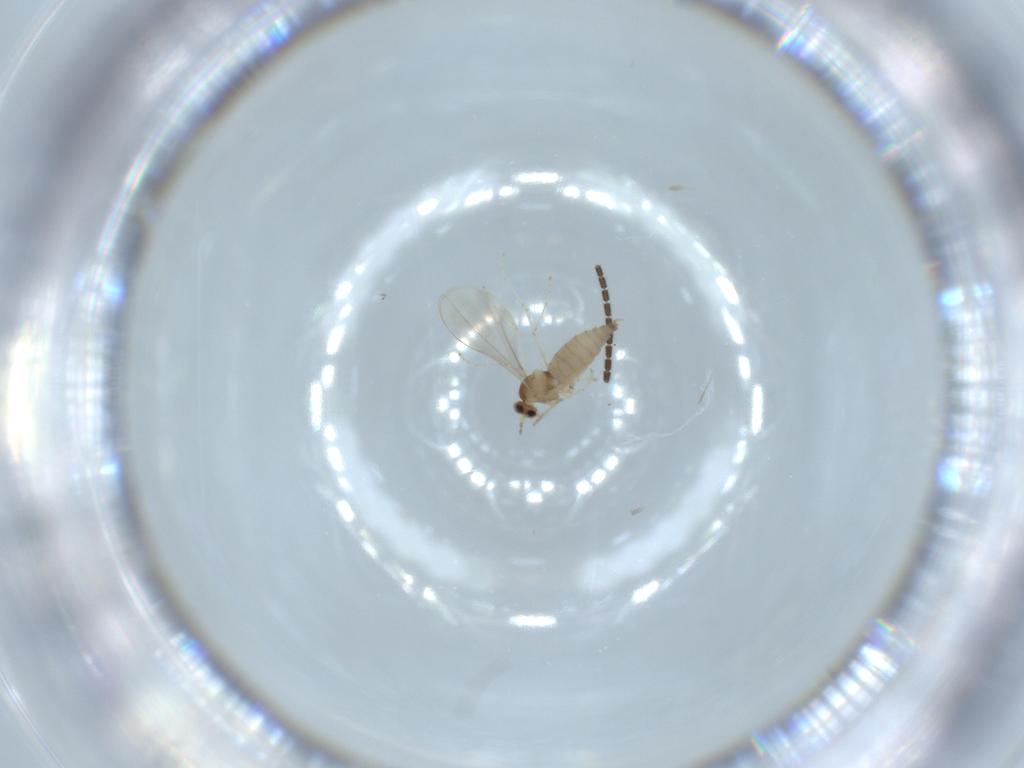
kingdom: Animalia
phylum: Arthropoda
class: Insecta
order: Diptera
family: Cecidomyiidae
